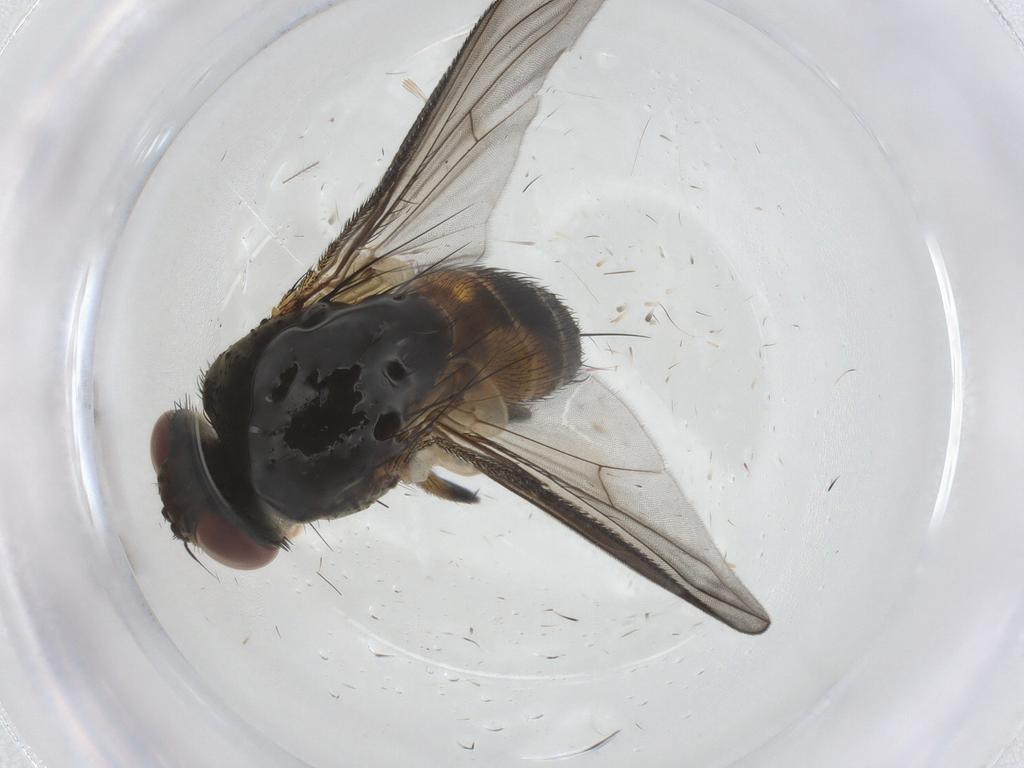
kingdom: Animalia
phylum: Arthropoda
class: Insecta
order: Diptera
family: Tachinidae
